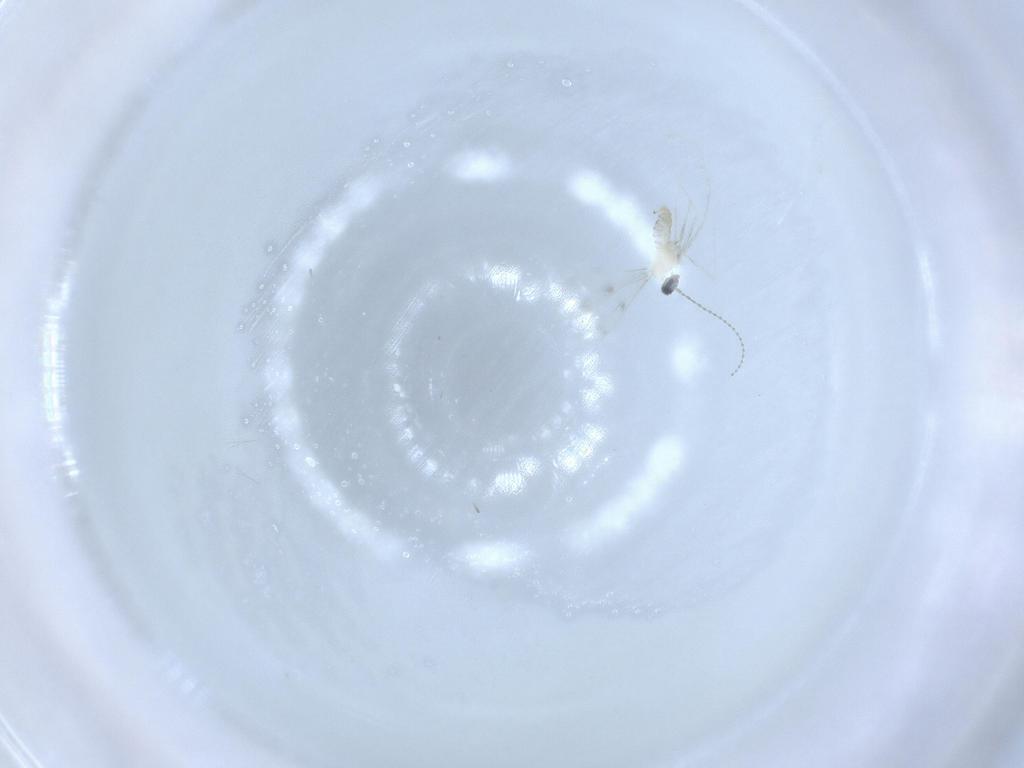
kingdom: Animalia
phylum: Arthropoda
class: Insecta
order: Diptera
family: Cecidomyiidae
